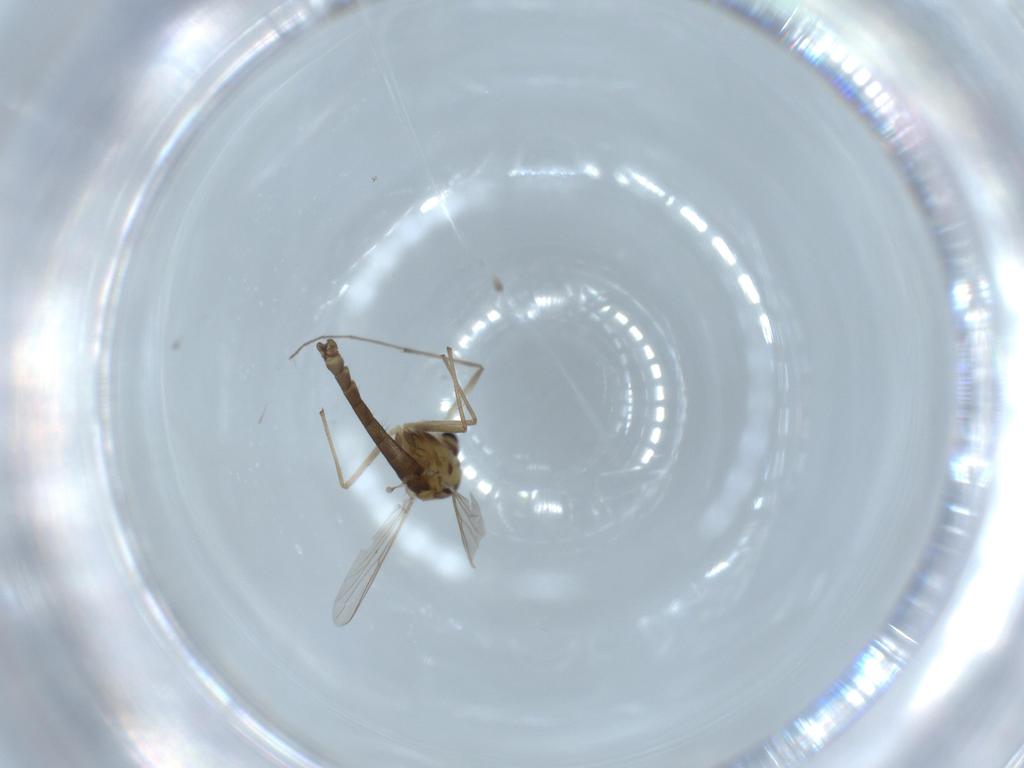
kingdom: Animalia
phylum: Arthropoda
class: Insecta
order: Diptera
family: Chironomidae
